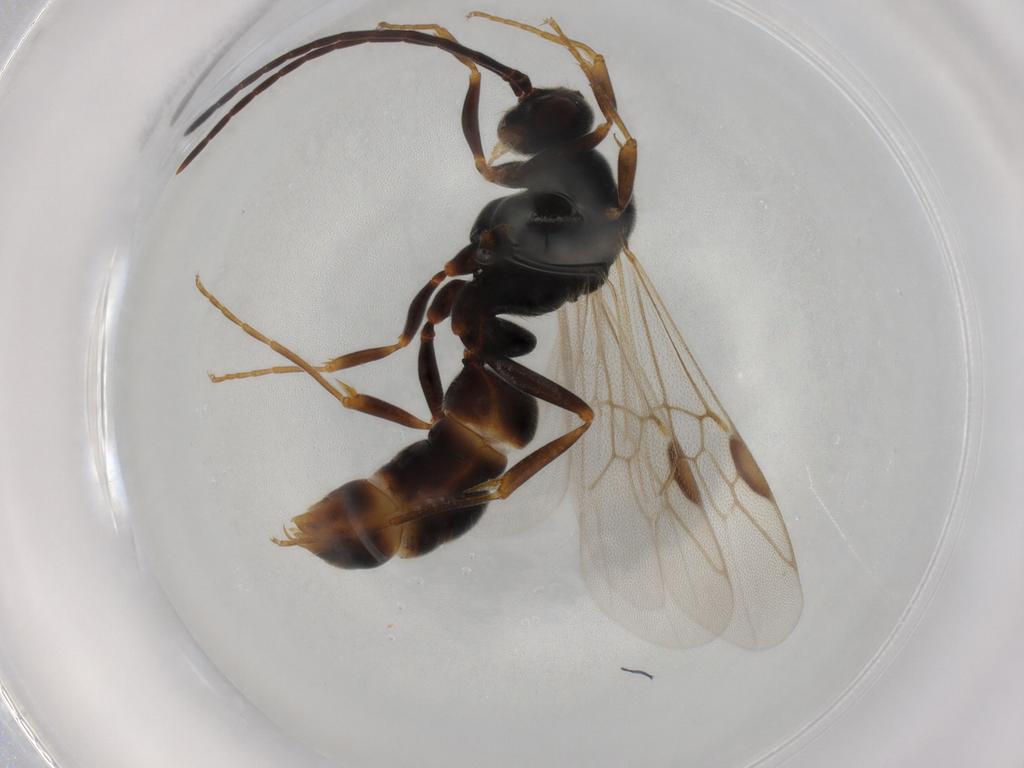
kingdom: Animalia
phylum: Arthropoda
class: Insecta
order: Hymenoptera
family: Formicidae
